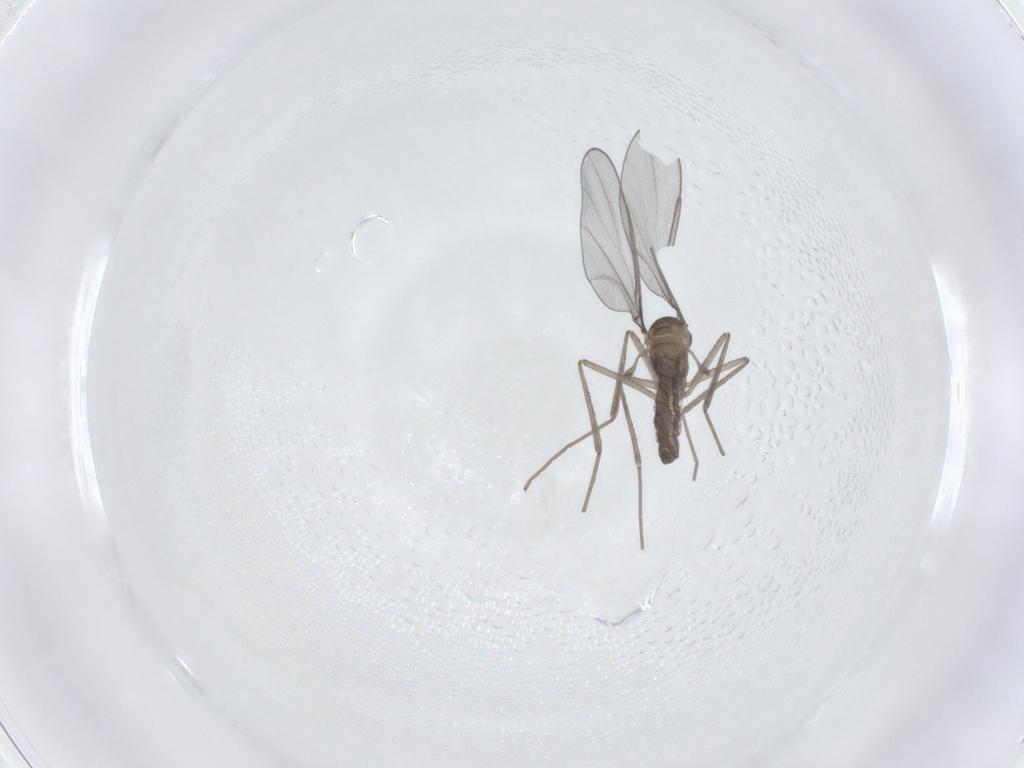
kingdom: Animalia
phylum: Arthropoda
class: Insecta
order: Diptera
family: Cecidomyiidae
